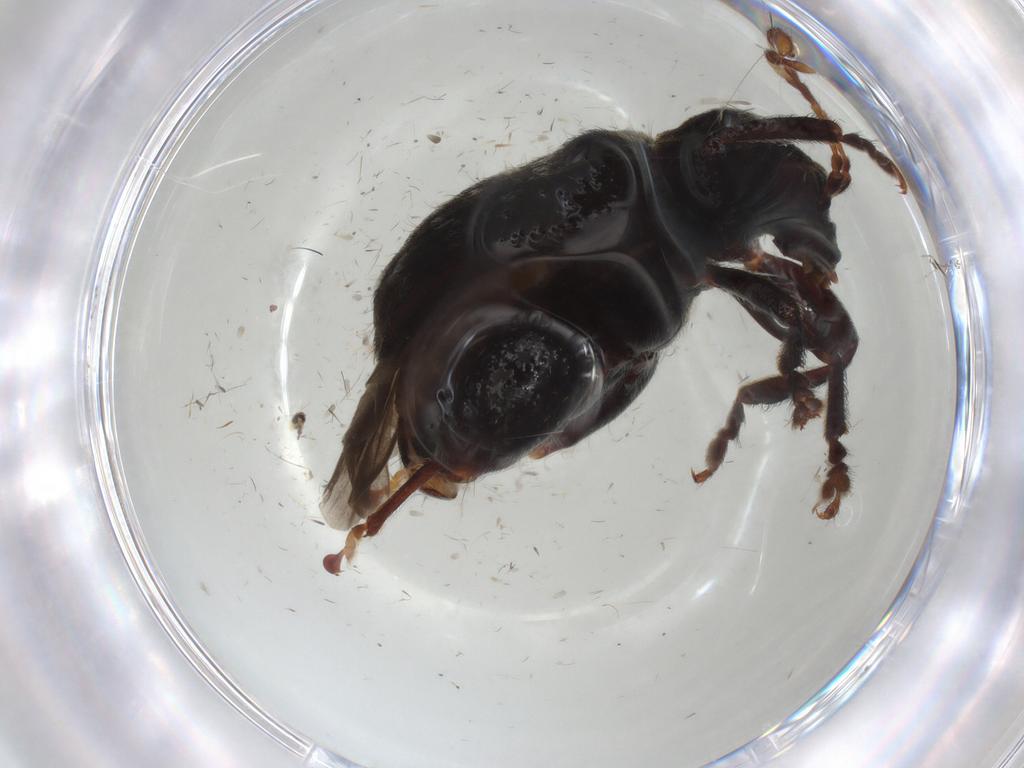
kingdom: Animalia
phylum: Arthropoda
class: Insecta
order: Coleoptera
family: Chrysomelidae
